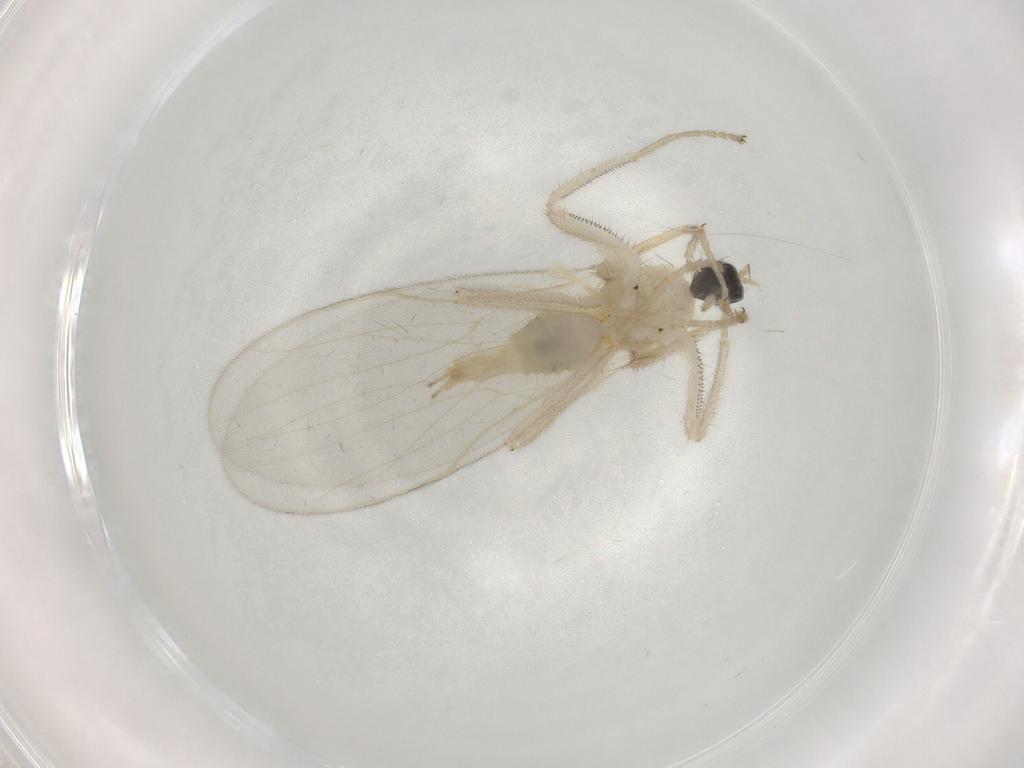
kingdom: Animalia
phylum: Arthropoda
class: Insecta
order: Diptera
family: Hybotidae
